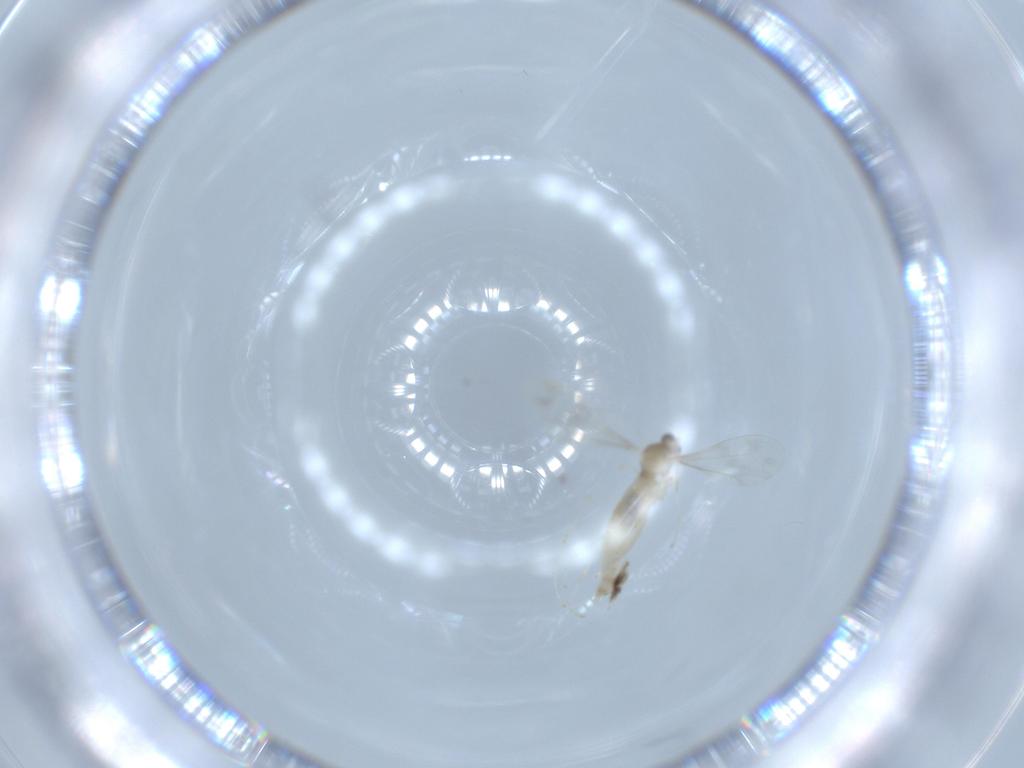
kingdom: Animalia
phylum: Arthropoda
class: Insecta
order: Diptera
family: Cecidomyiidae
